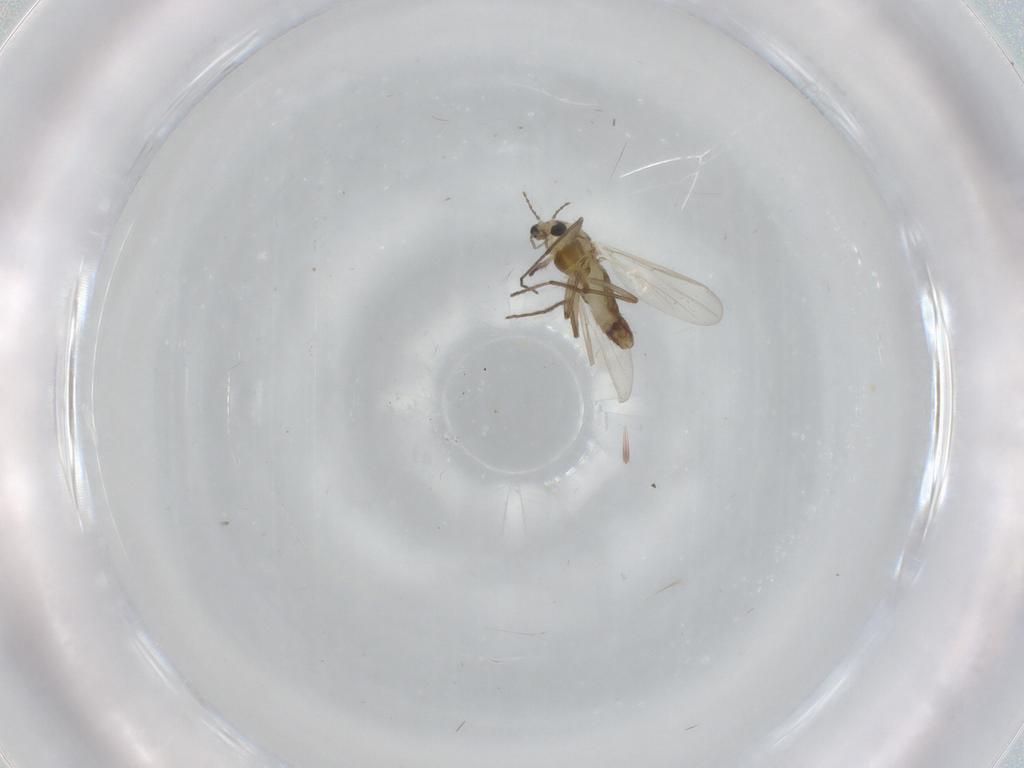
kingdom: Animalia
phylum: Arthropoda
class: Insecta
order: Diptera
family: Chironomidae
